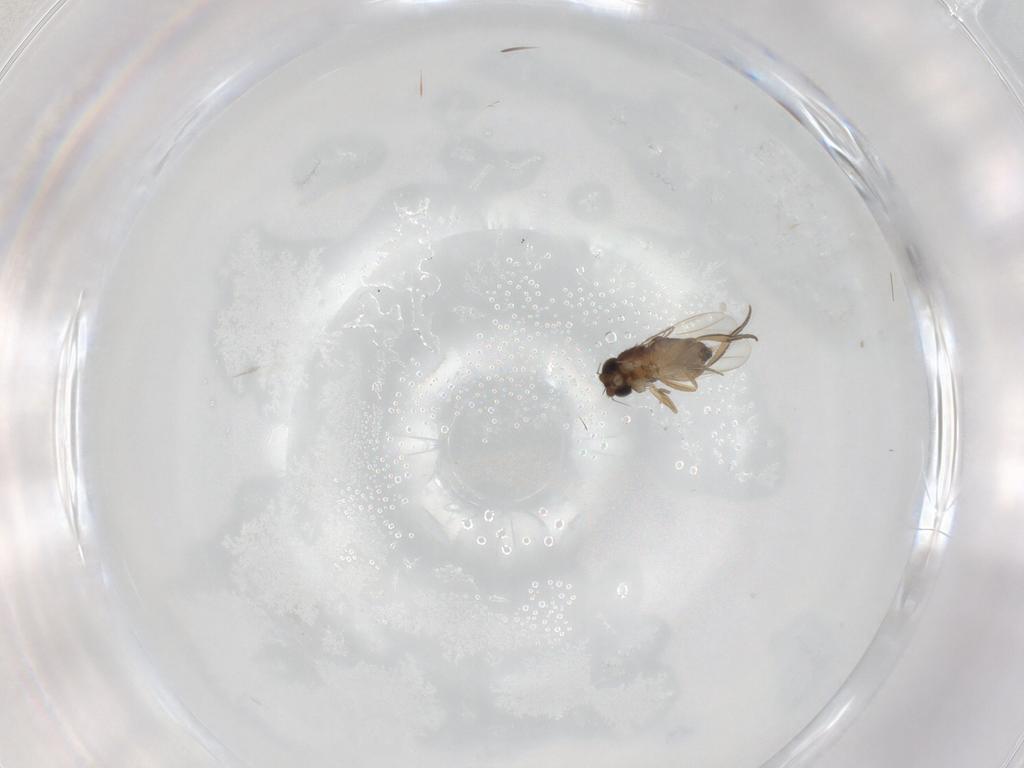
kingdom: Animalia
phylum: Arthropoda
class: Insecta
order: Diptera
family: Phoridae
